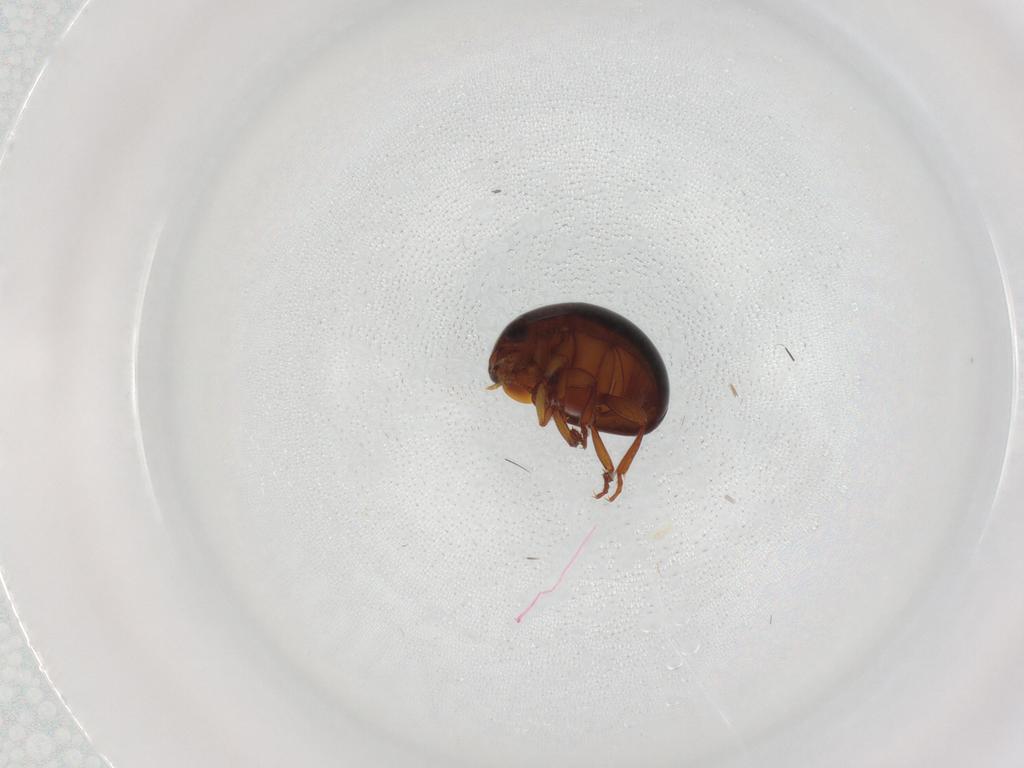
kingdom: Animalia
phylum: Arthropoda
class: Insecta
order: Coleoptera
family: Leiodidae
